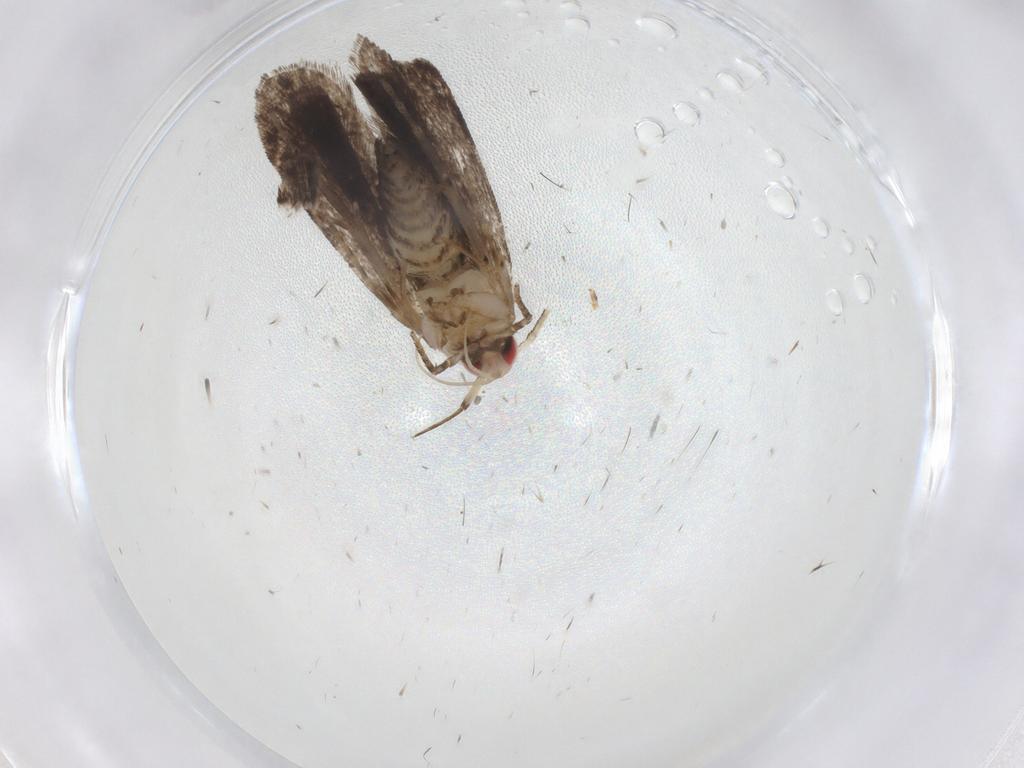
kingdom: Animalia
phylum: Arthropoda
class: Insecta
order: Lepidoptera
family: Gelechiidae
